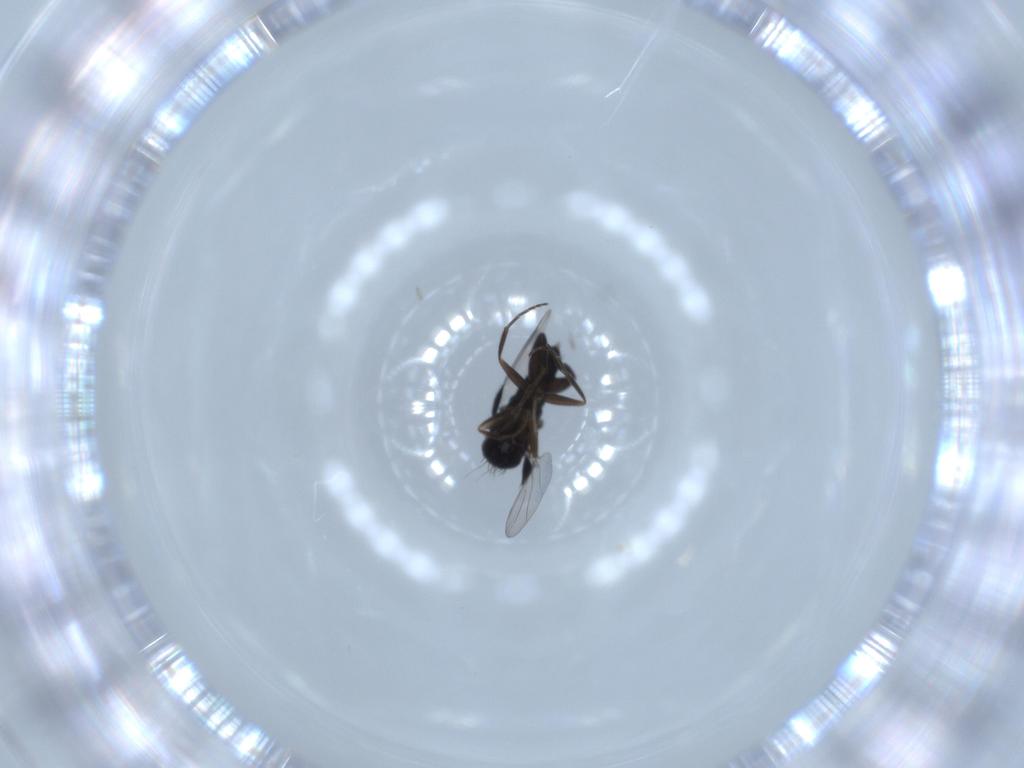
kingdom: Animalia
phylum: Arthropoda
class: Insecta
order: Diptera
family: Phoridae
